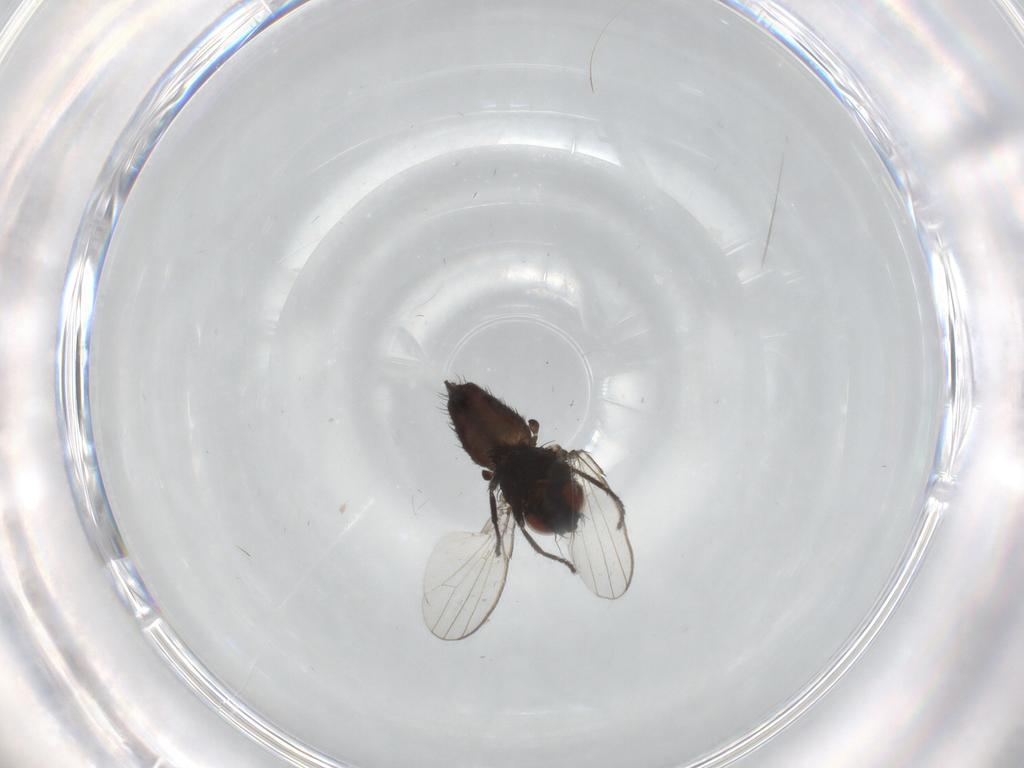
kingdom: Animalia
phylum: Arthropoda
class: Insecta
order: Diptera
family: Milichiidae
